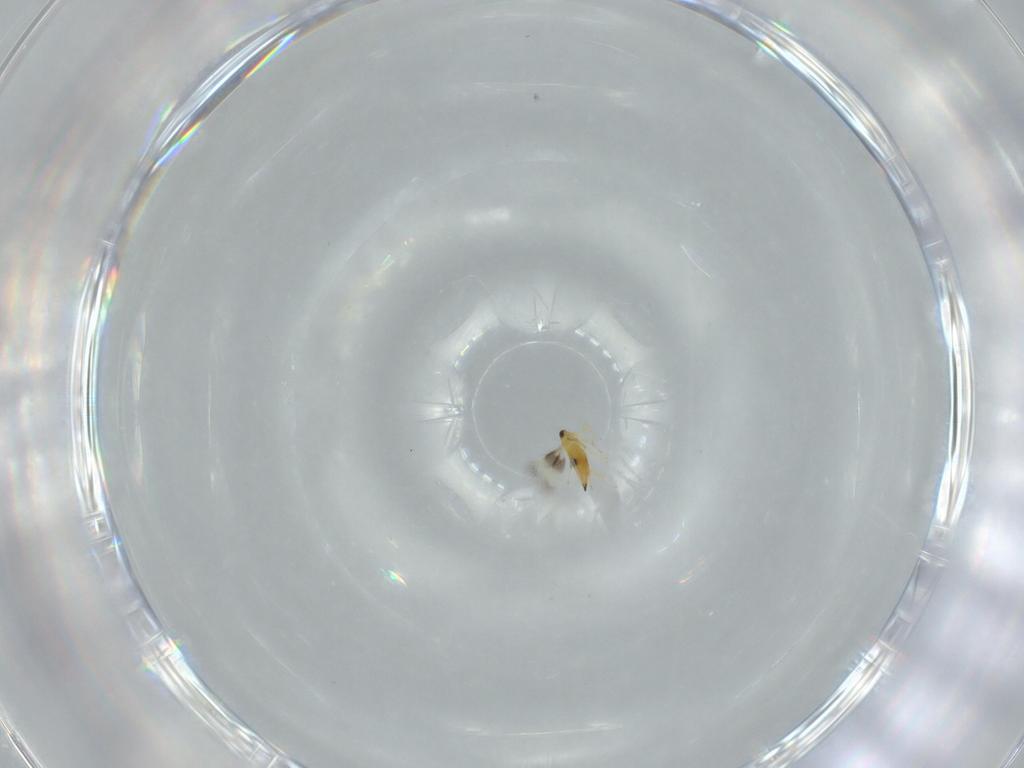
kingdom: Animalia
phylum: Arthropoda
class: Insecta
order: Hymenoptera
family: Signiphoridae
